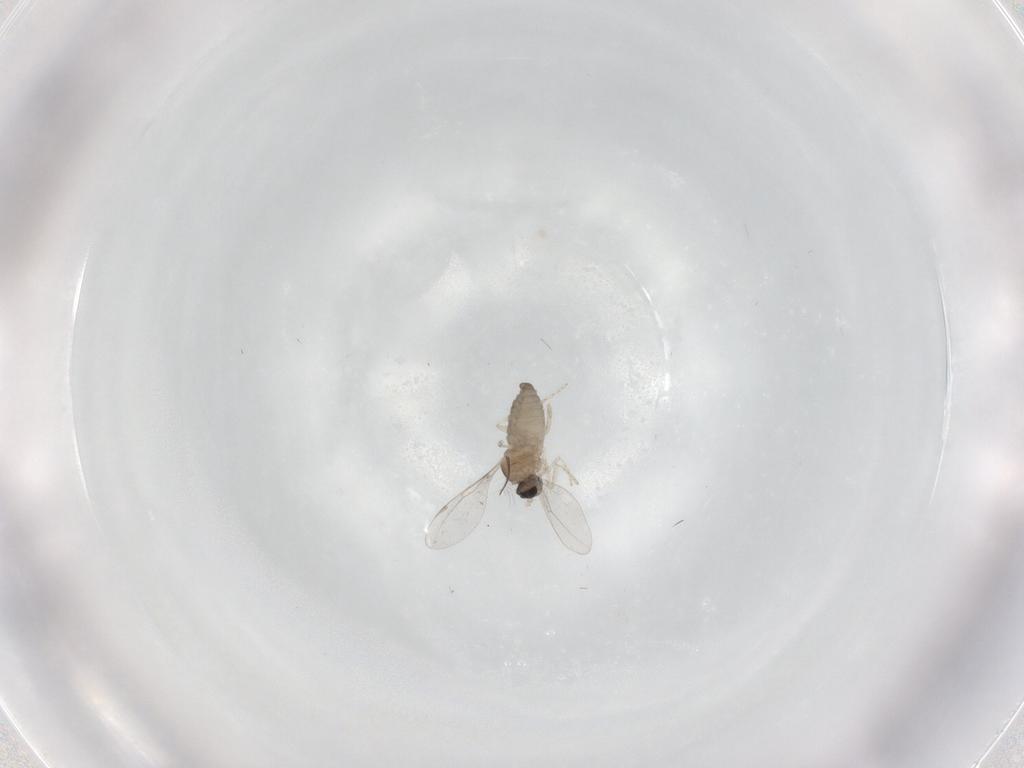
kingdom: Animalia
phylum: Arthropoda
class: Insecta
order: Diptera
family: Cecidomyiidae
